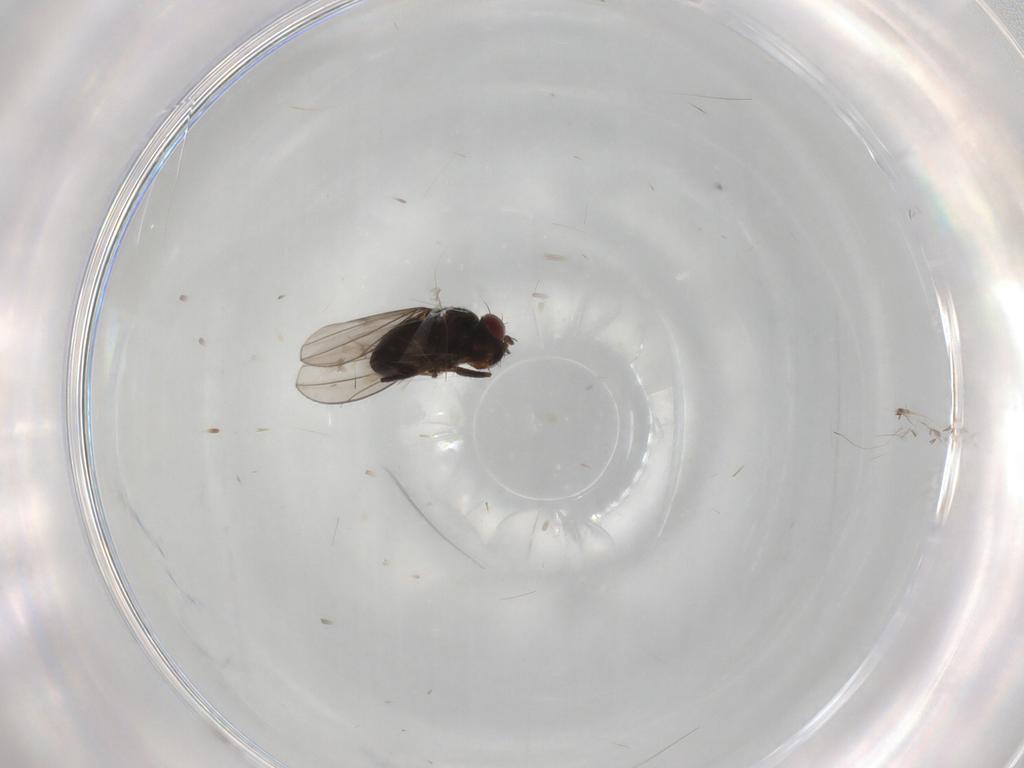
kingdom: Animalia
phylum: Arthropoda
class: Insecta
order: Diptera
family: Ephydridae
